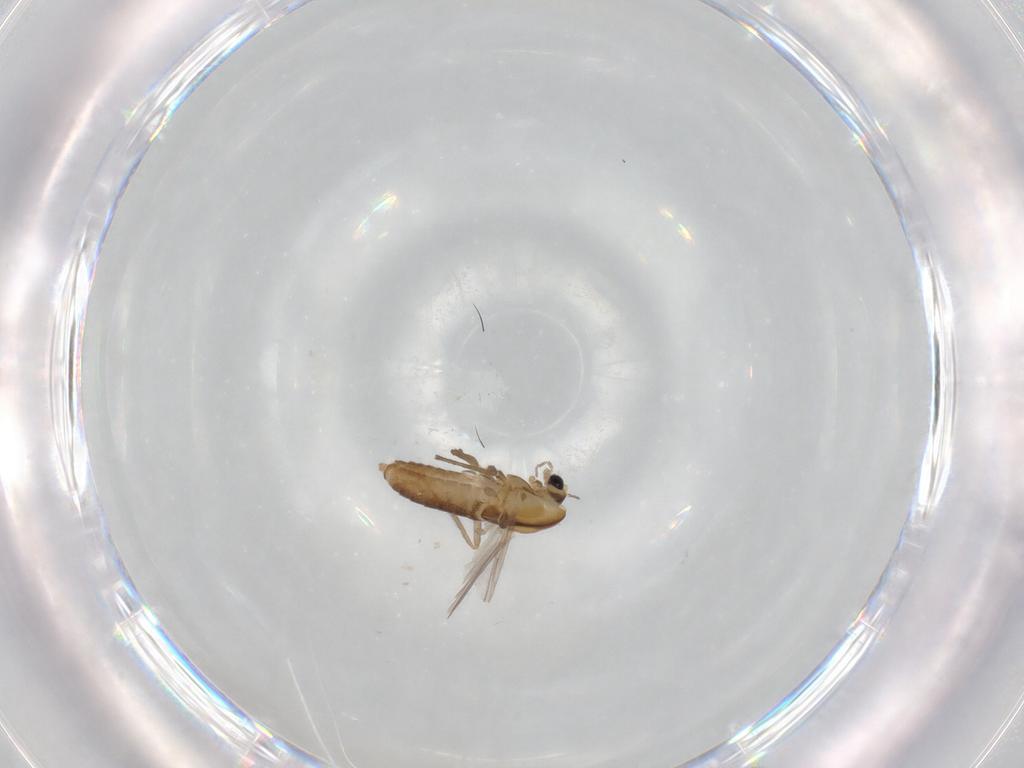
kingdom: Animalia
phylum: Arthropoda
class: Insecta
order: Diptera
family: Chironomidae
